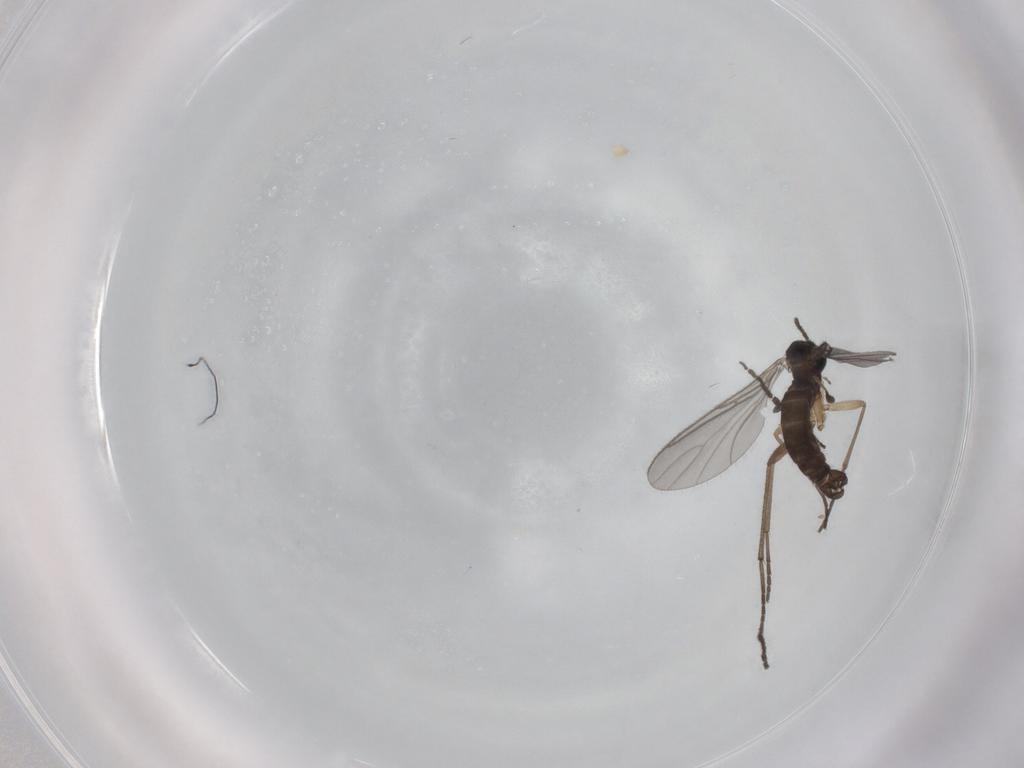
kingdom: Animalia
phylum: Arthropoda
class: Insecta
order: Diptera
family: Sciaridae
